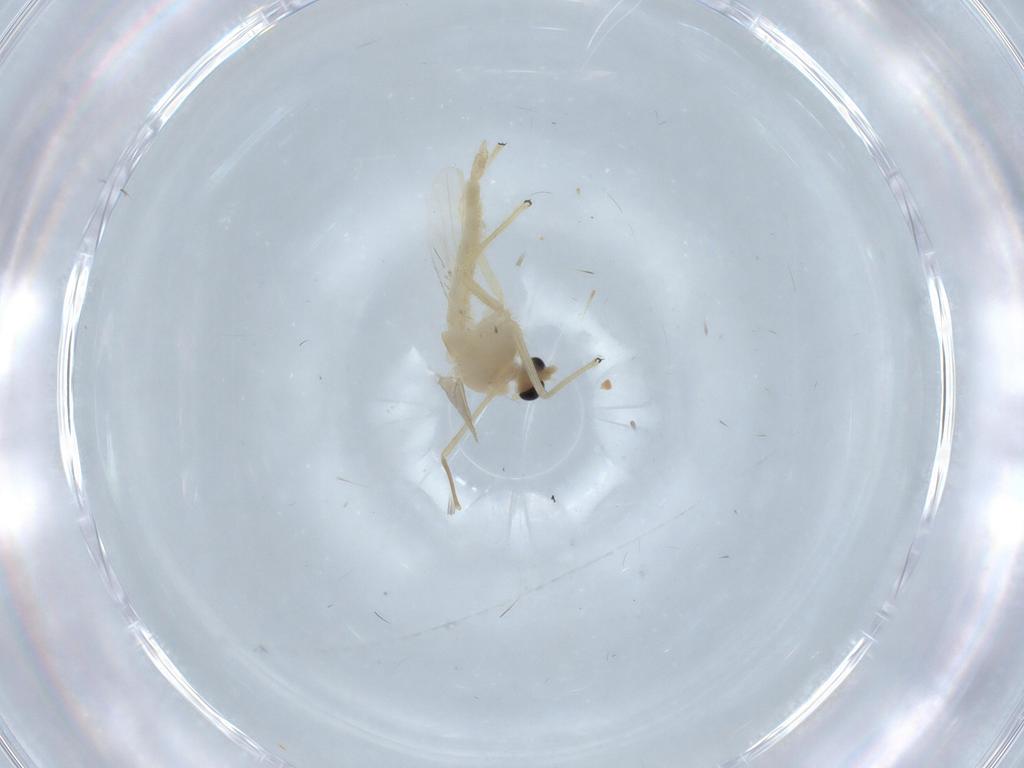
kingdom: Animalia
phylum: Arthropoda
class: Insecta
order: Diptera
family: Chironomidae
